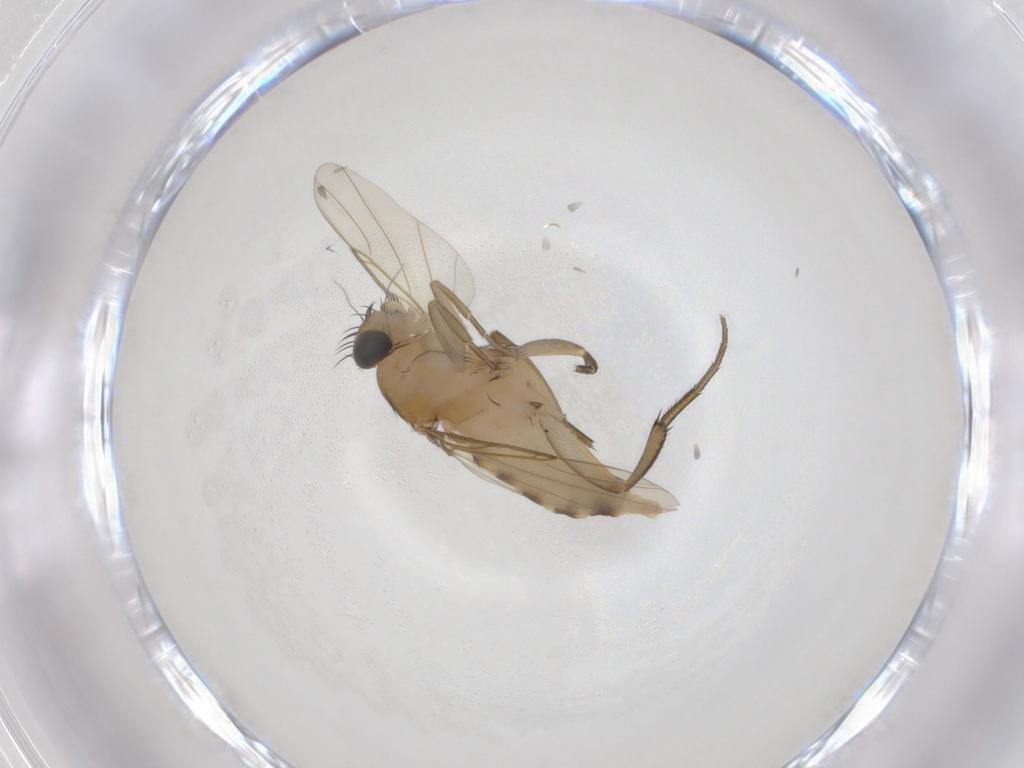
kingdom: Animalia
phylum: Arthropoda
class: Insecta
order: Diptera
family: Phoridae
